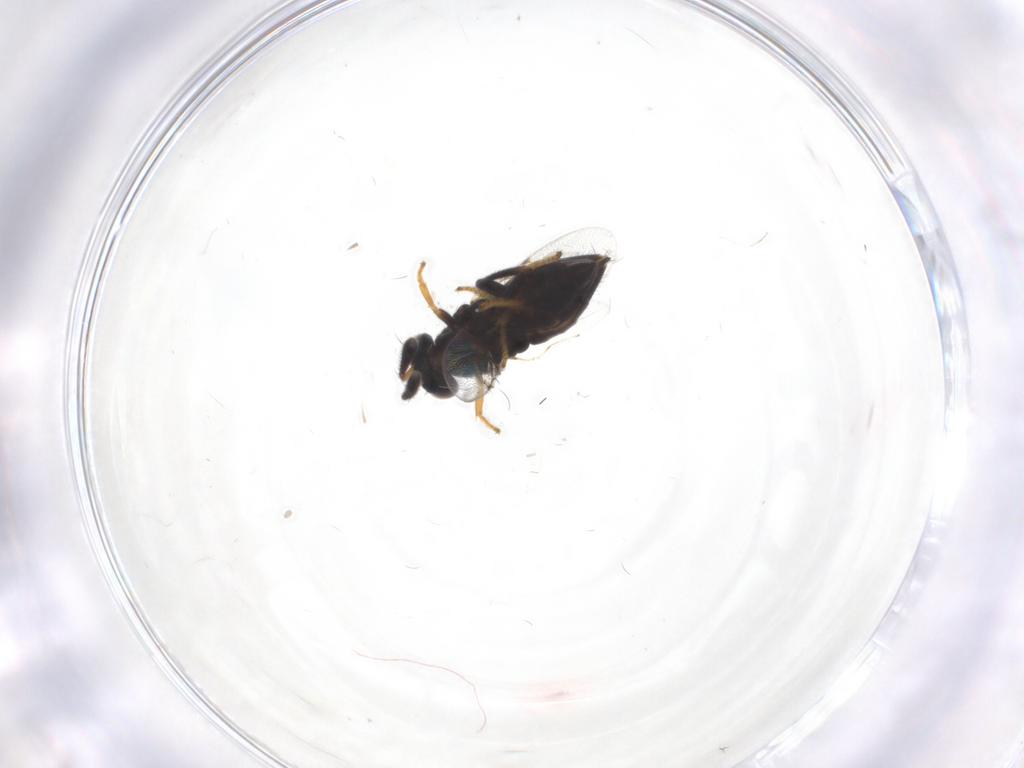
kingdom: Animalia
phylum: Arthropoda
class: Insecta
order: Hymenoptera
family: Encyrtidae
